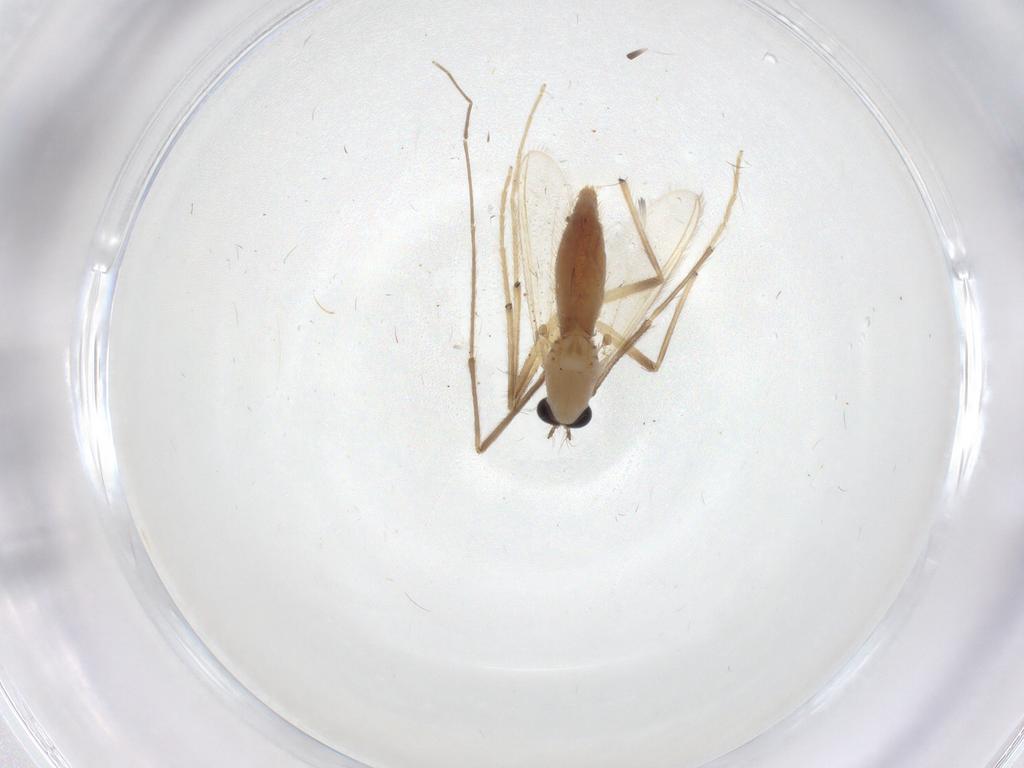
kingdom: Animalia
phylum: Arthropoda
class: Insecta
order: Diptera
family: Chironomidae
